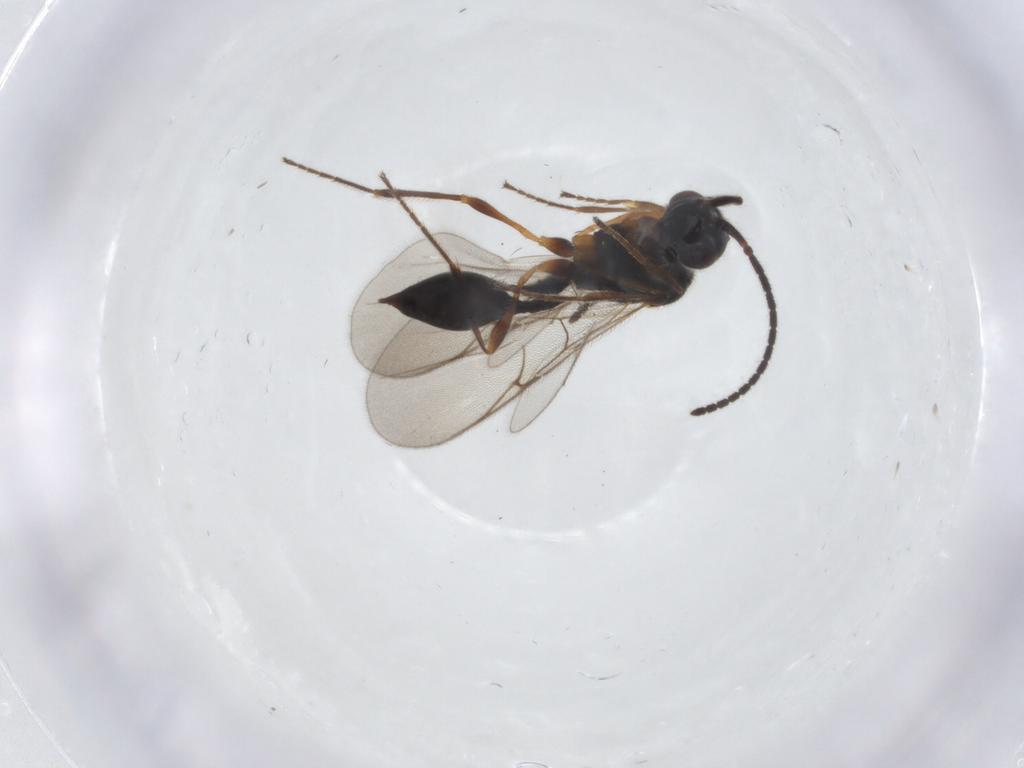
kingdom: Animalia
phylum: Arthropoda
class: Insecta
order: Hymenoptera
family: Diapriidae
